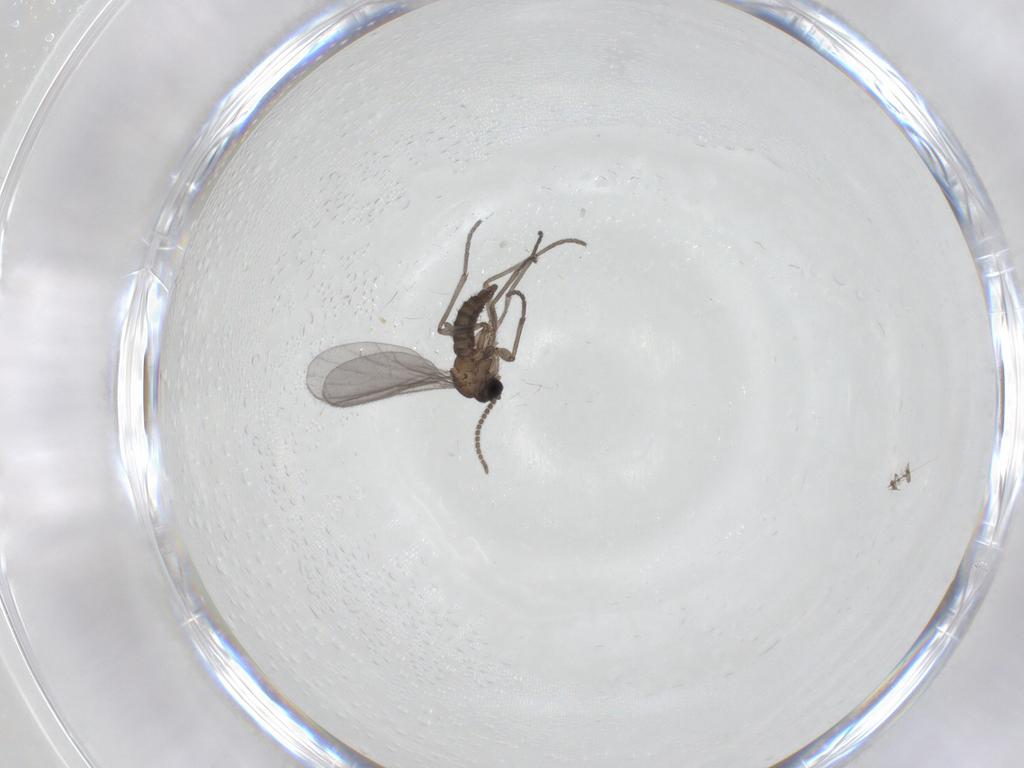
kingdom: Animalia
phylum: Arthropoda
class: Insecta
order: Diptera
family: Sciaridae
